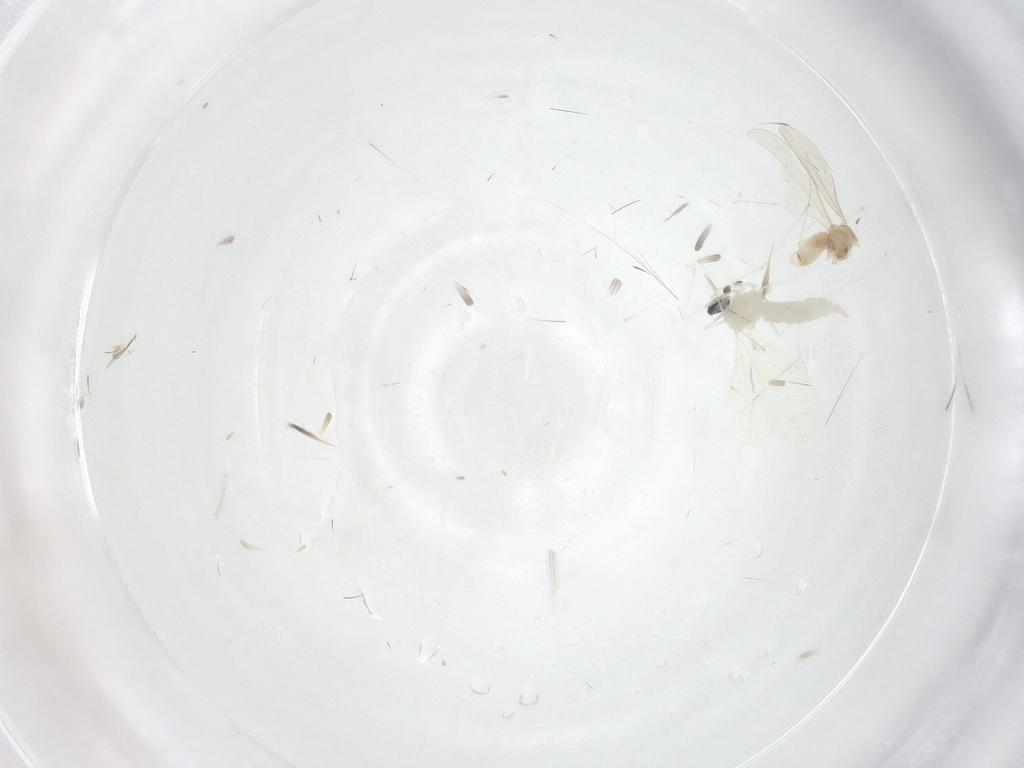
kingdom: Animalia
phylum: Arthropoda
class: Insecta
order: Diptera
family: Cecidomyiidae
